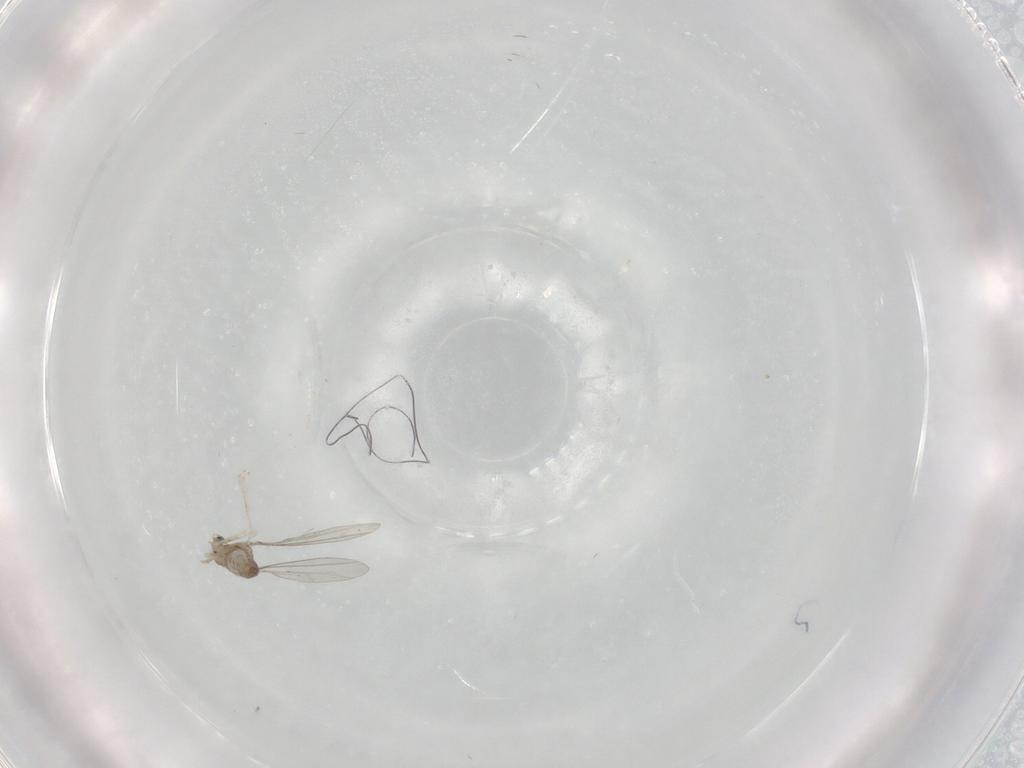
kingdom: Animalia
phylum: Arthropoda
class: Insecta
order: Diptera
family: Cecidomyiidae
